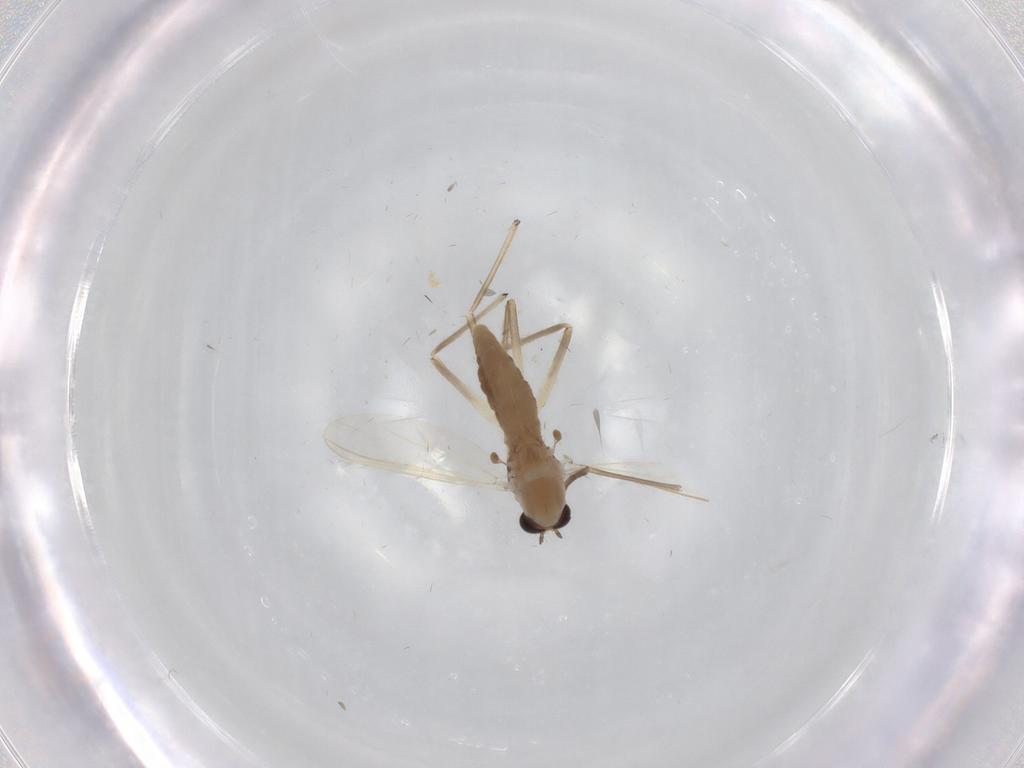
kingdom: Animalia
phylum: Arthropoda
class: Insecta
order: Diptera
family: Chironomidae
